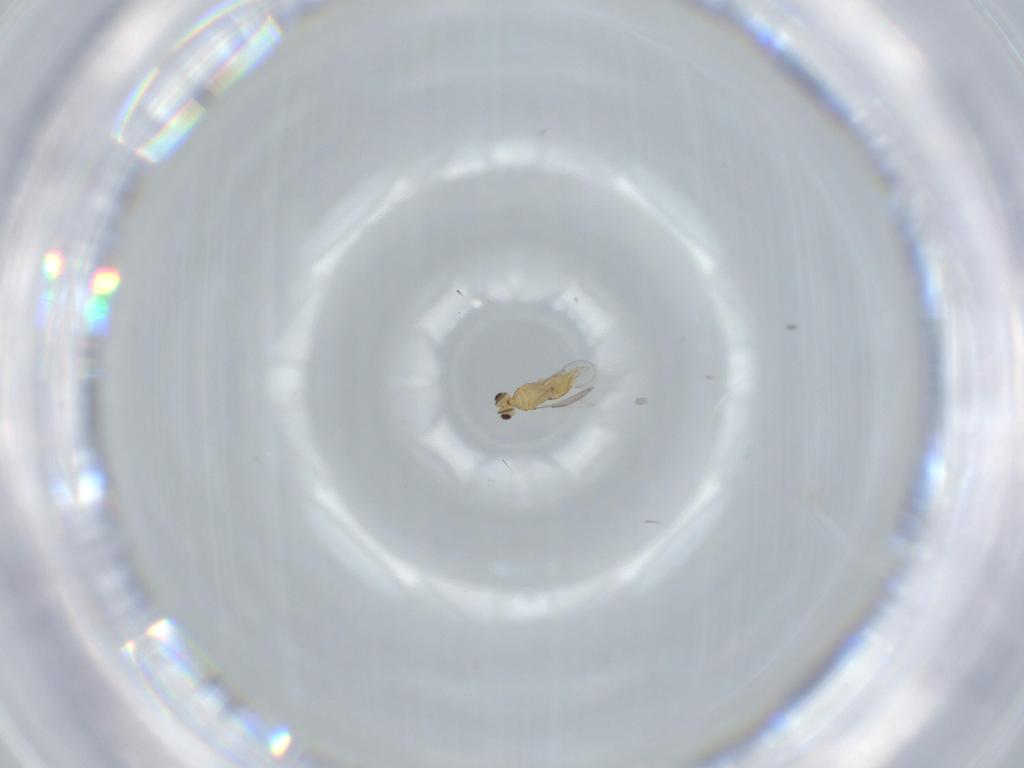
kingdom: Animalia
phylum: Arthropoda
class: Insecta
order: Hymenoptera
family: Aphelinidae
